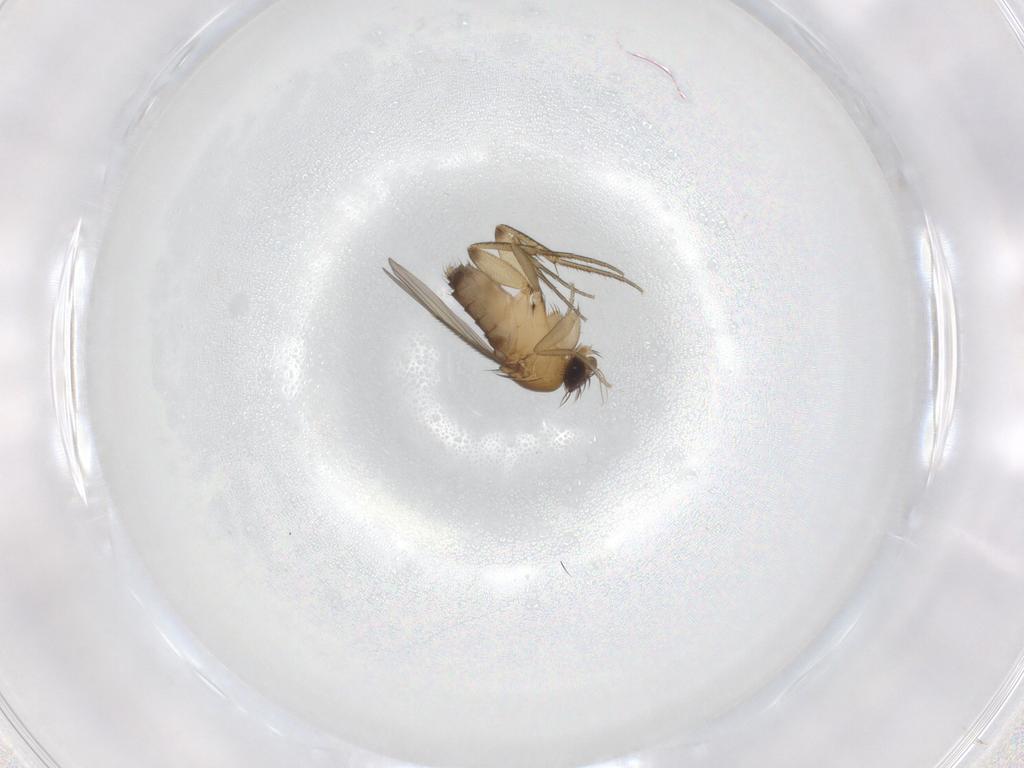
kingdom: Animalia
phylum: Arthropoda
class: Insecta
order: Diptera
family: Phoridae
